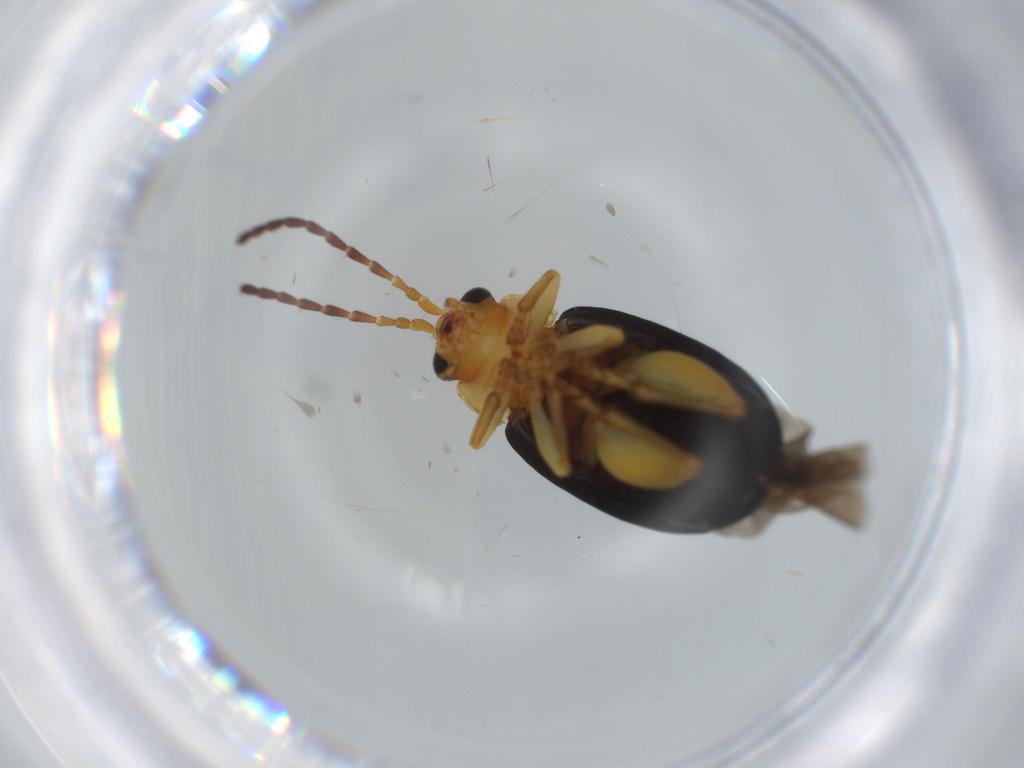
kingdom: Animalia
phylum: Arthropoda
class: Insecta
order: Coleoptera
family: Chrysomelidae
